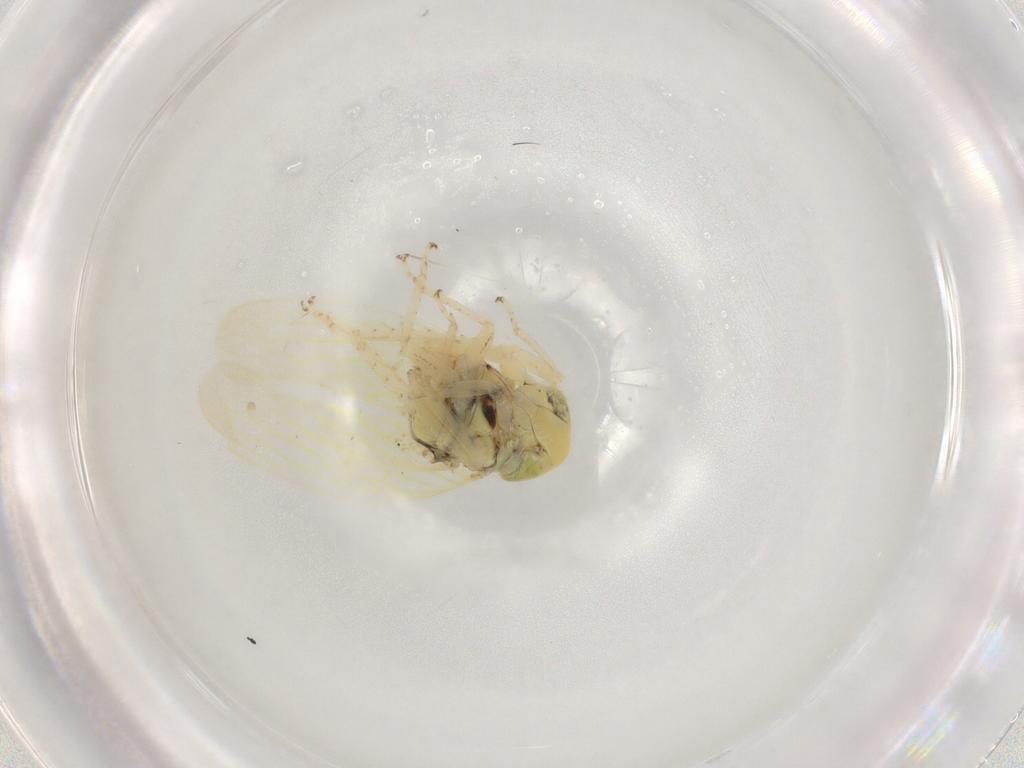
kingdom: Animalia
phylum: Arthropoda
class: Insecta
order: Hemiptera
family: Cicadellidae
